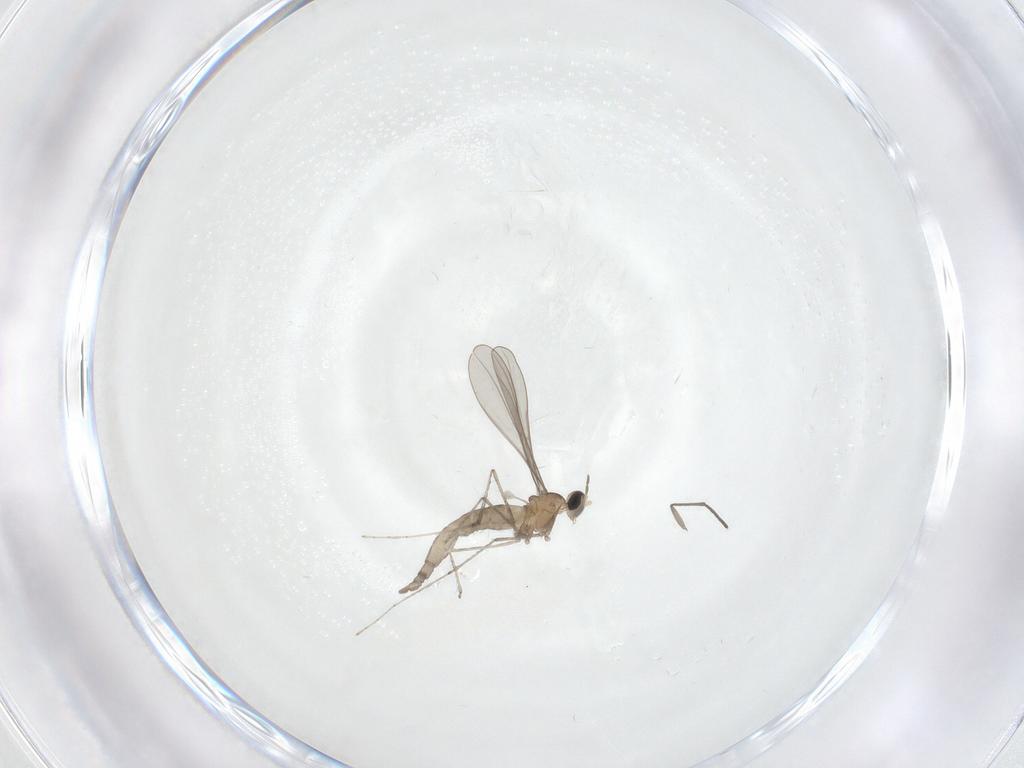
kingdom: Animalia
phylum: Arthropoda
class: Insecta
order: Diptera
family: Cecidomyiidae
